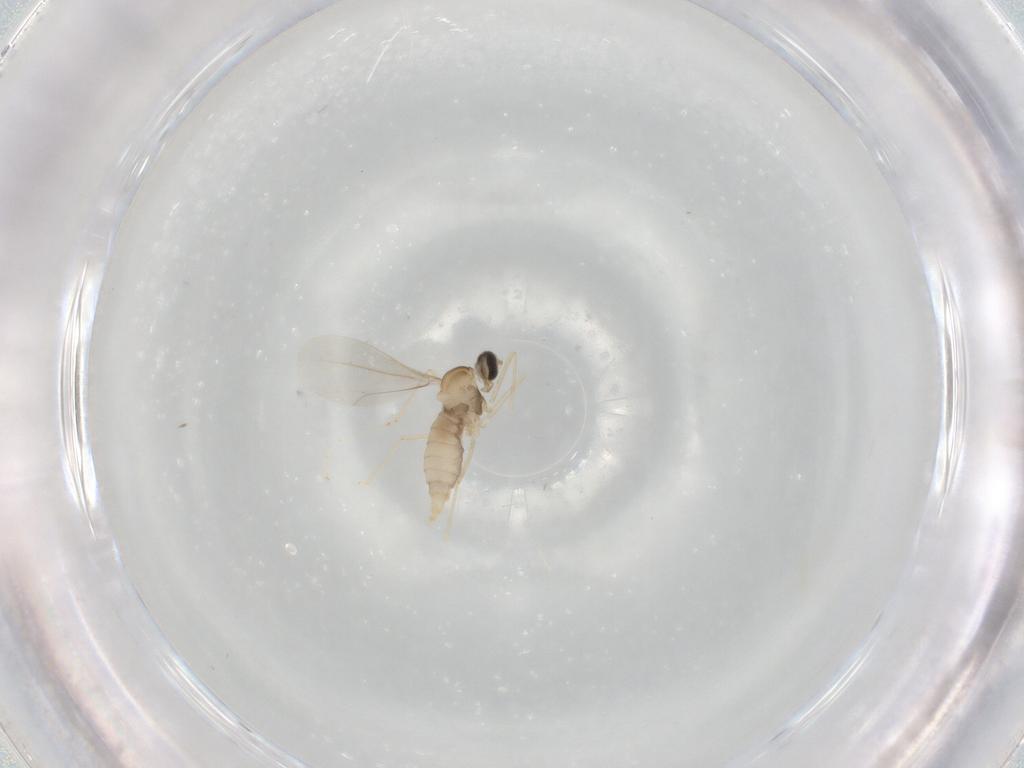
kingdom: Animalia
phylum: Arthropoda
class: Insecta
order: Diptera
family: Cecidomyiidae
